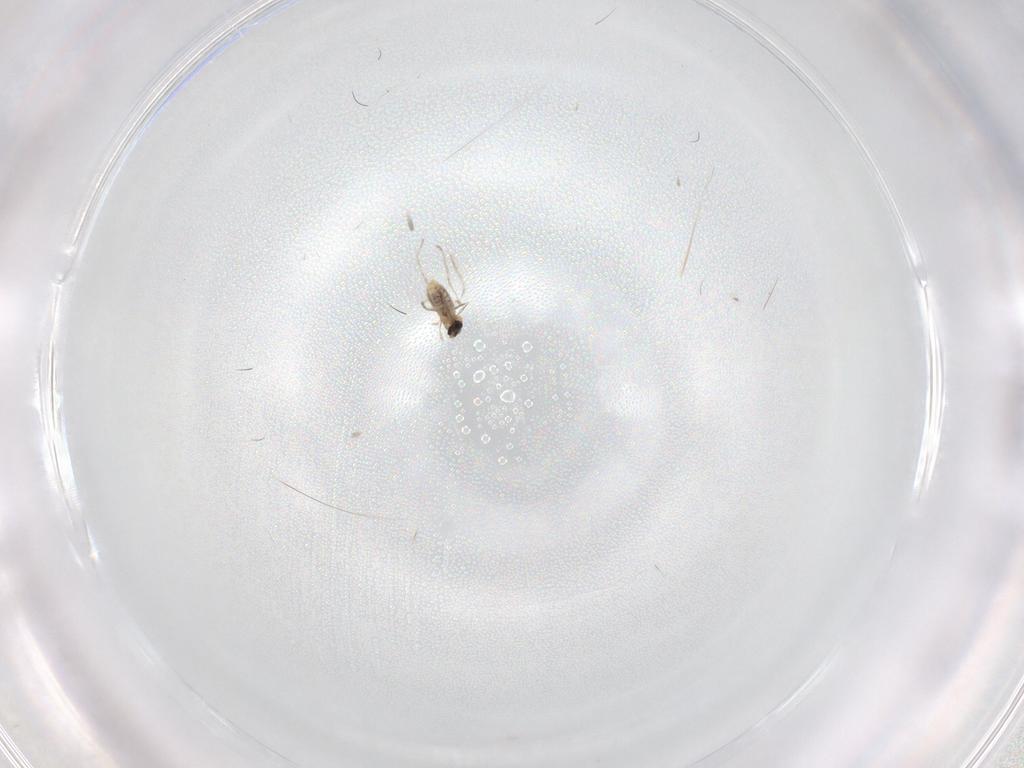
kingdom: Animalia
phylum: Arthropoda
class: Insecta
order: Diptera
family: Cecidomyiidae
